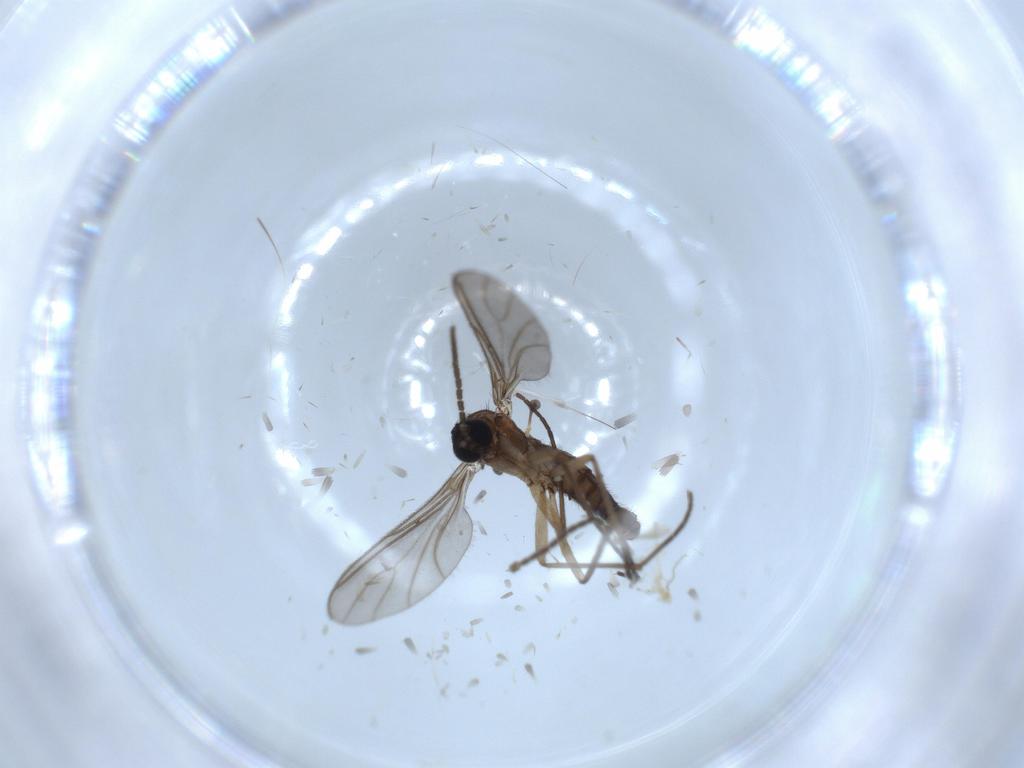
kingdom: Animalia
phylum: Arthropoda
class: Insecta
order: Diptera
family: Sciaridae
